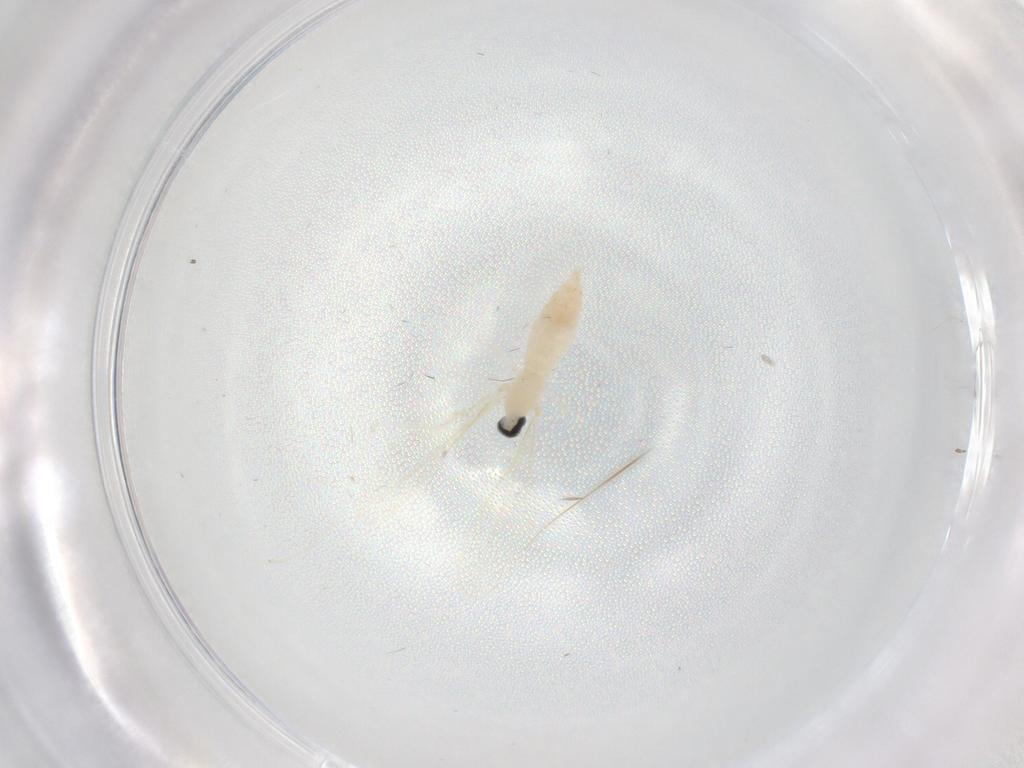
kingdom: Animalia
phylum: Arthropoda
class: Insecta
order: Diptera
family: Cecidomyiidae
